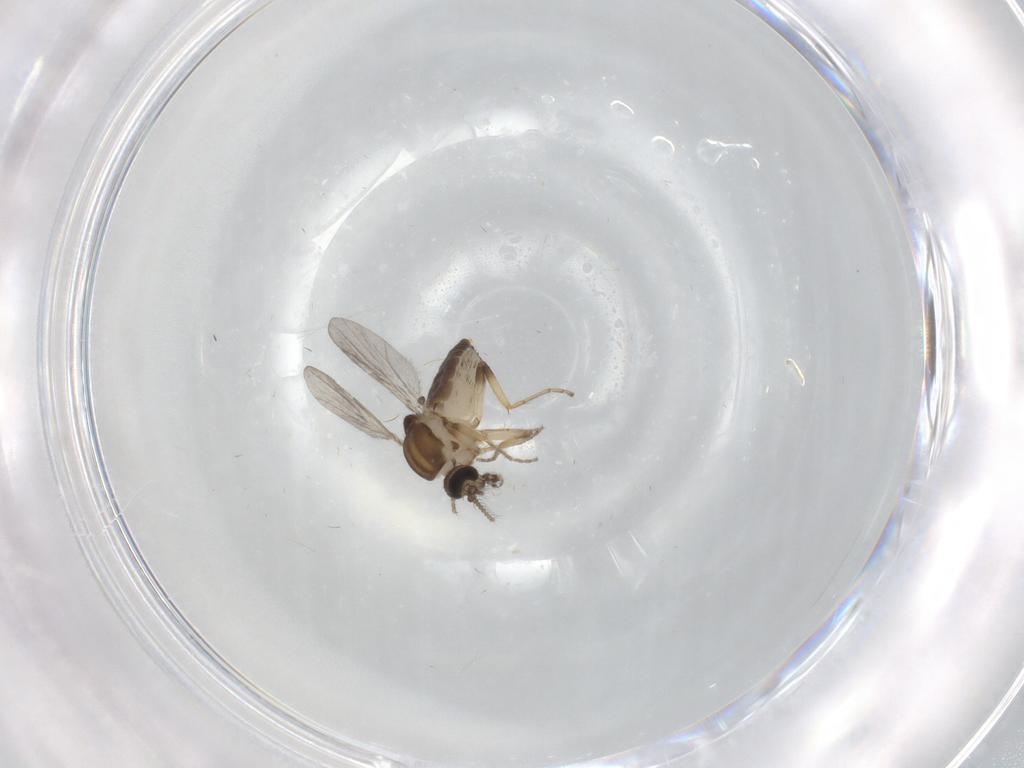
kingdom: Animalia
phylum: Arthropoda
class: Insecta
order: Diptera
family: Ceratopogonidae
